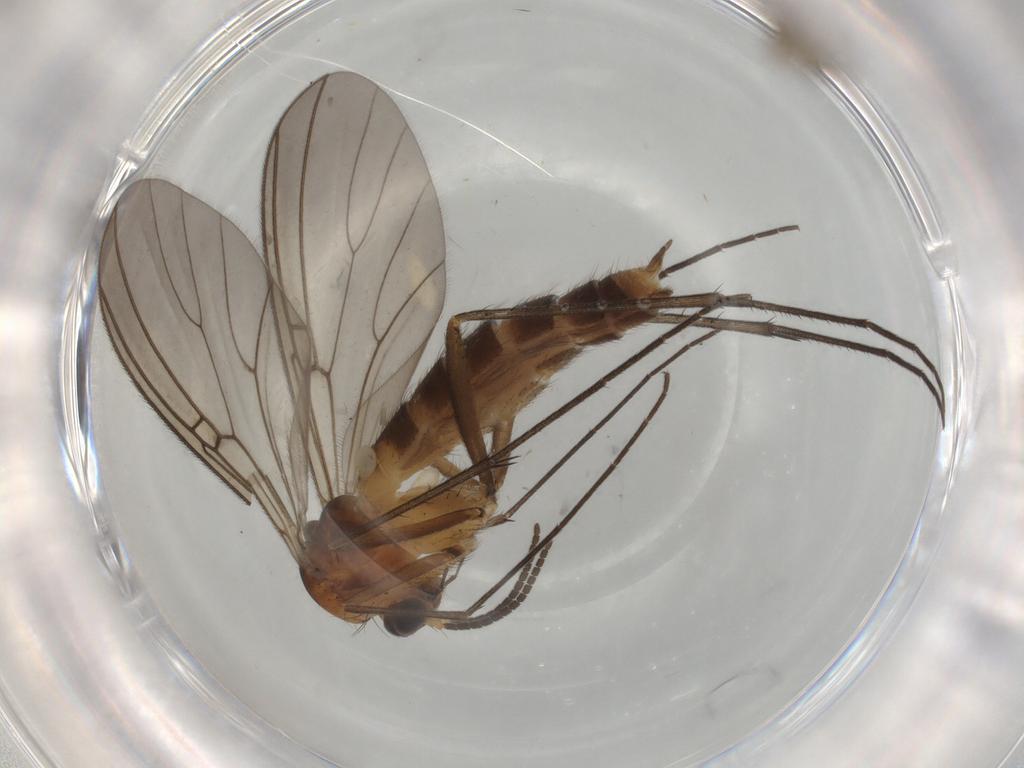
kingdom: Animalia
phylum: Arthropoda
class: Insecta
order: Diptera
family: Mycetophilidae
